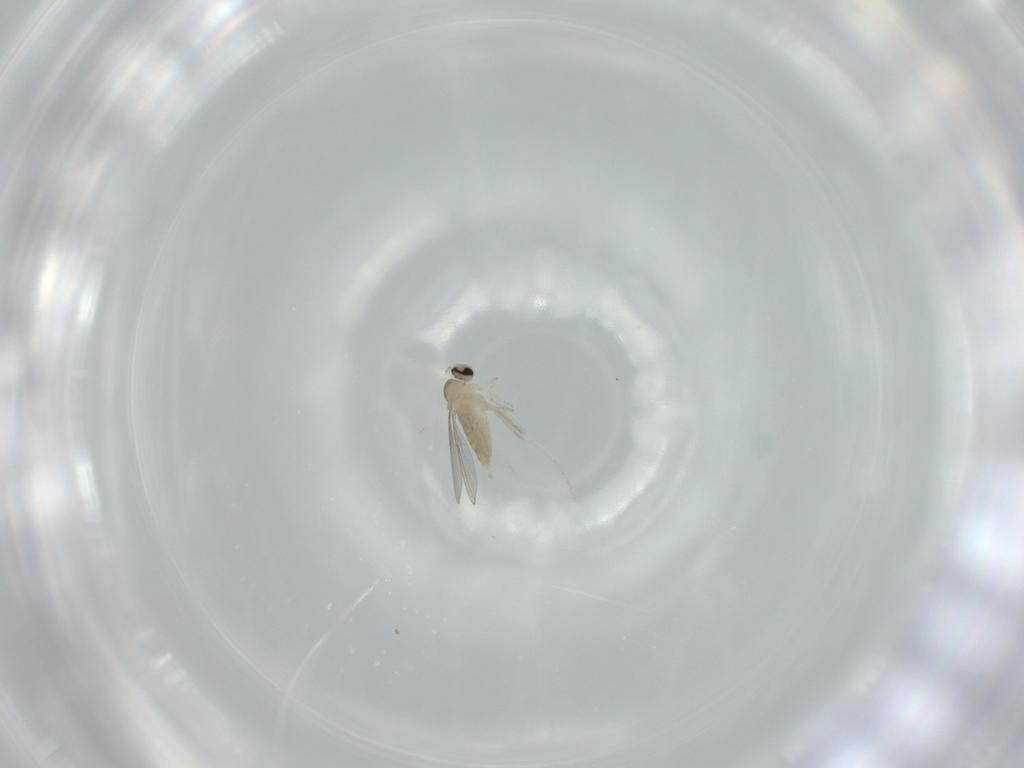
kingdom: Animalia
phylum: Arthropoda
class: Insecta
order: Diptera
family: Cecidomyiidae
